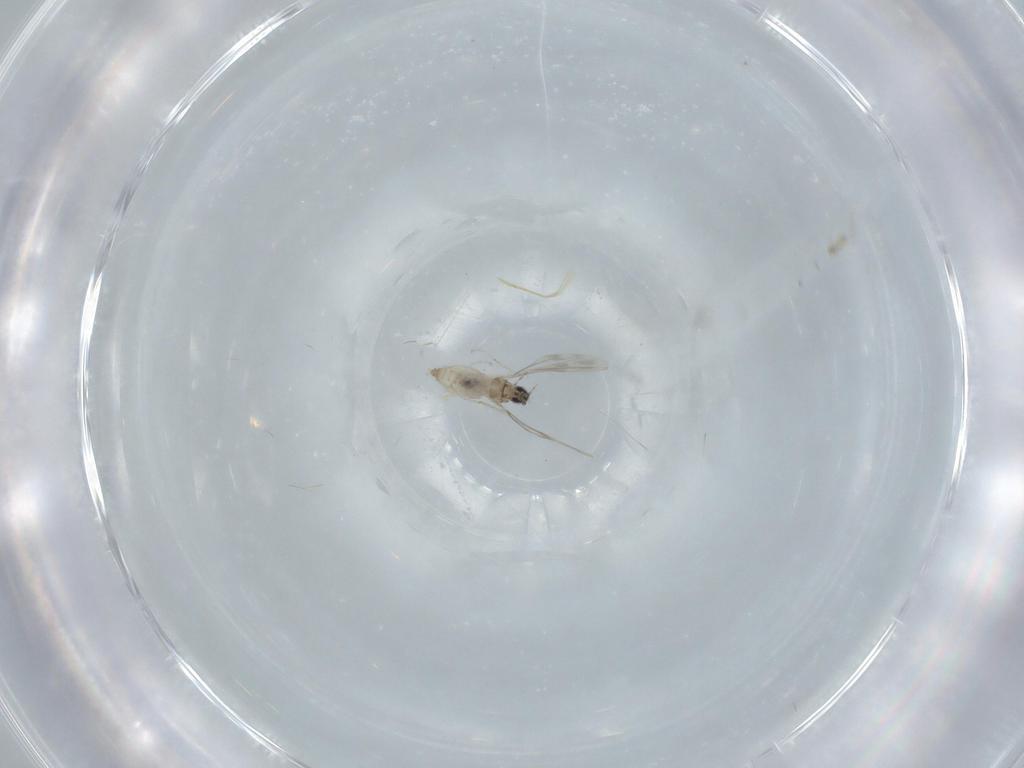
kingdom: Animalia
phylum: Arthropoda
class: Insecta
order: Diptera
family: Cecidomyiidae
